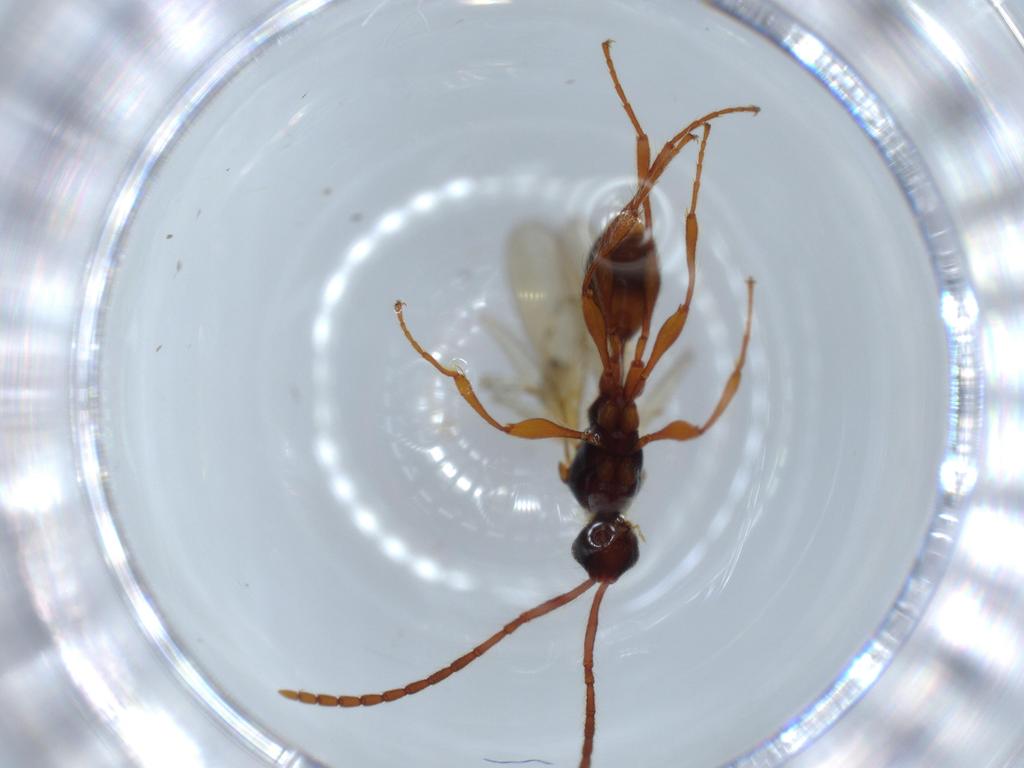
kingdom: Animalia
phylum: Arthropoda
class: Insecta
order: Hymenoptera
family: Diapriidae
